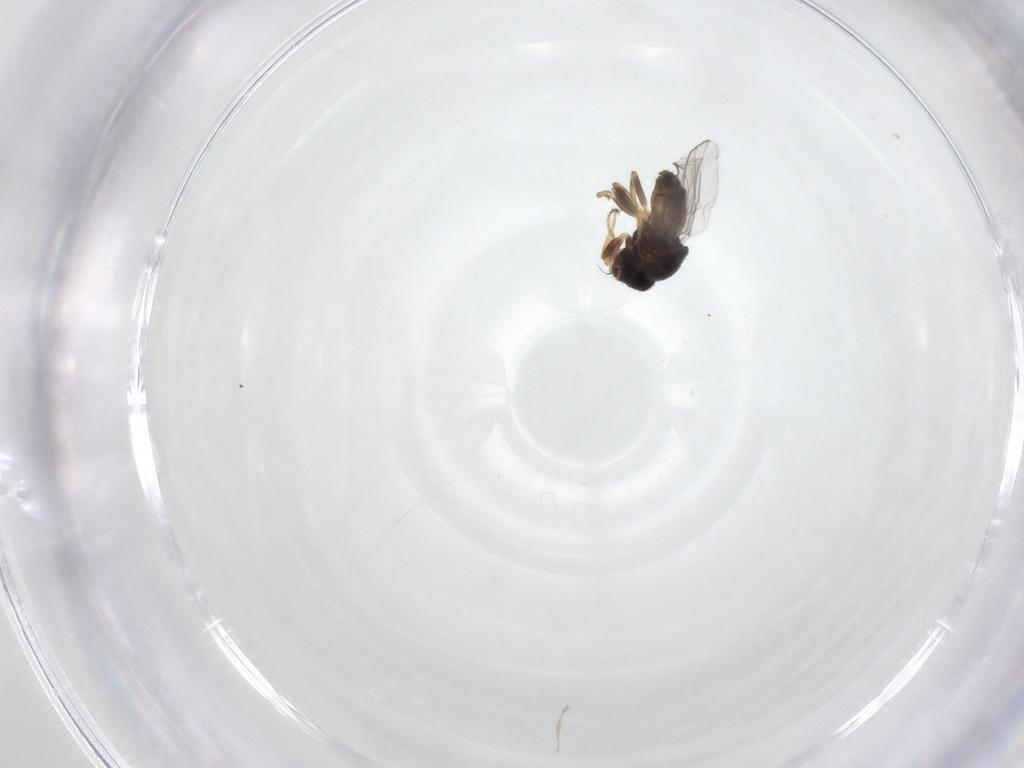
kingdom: Animalia
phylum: Arthropoda
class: Insecta
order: Diptera
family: Chloropidae
